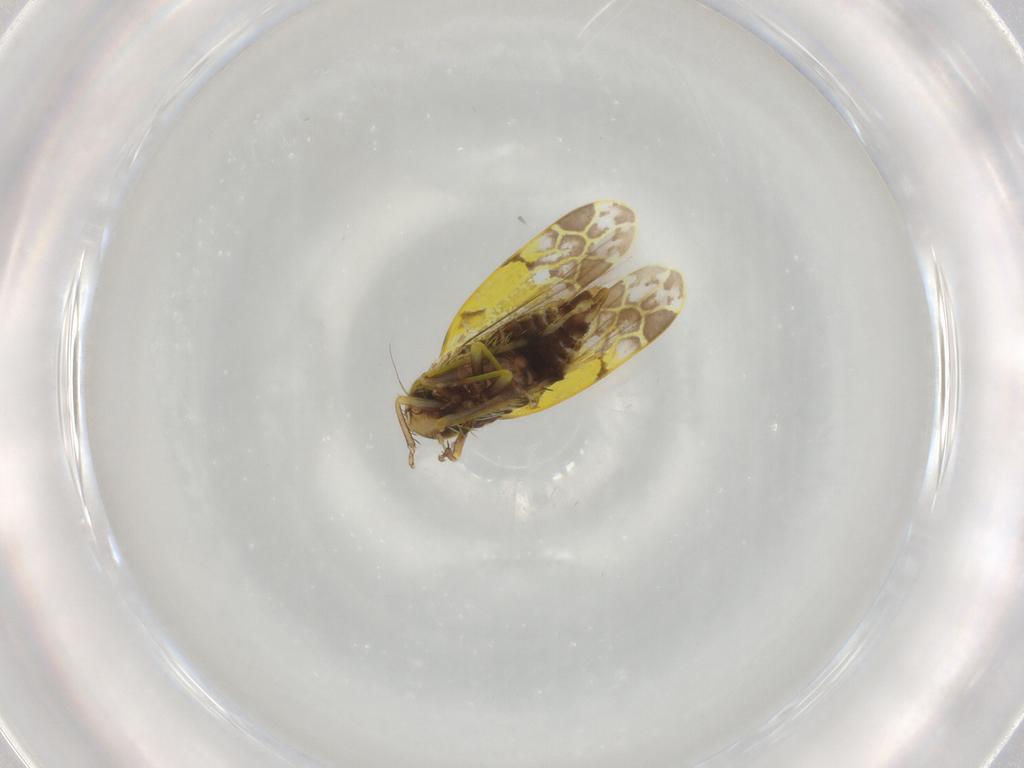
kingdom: Animalia
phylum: Arthropoda
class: Insecta
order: Hemiptera
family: Cicadellidae
